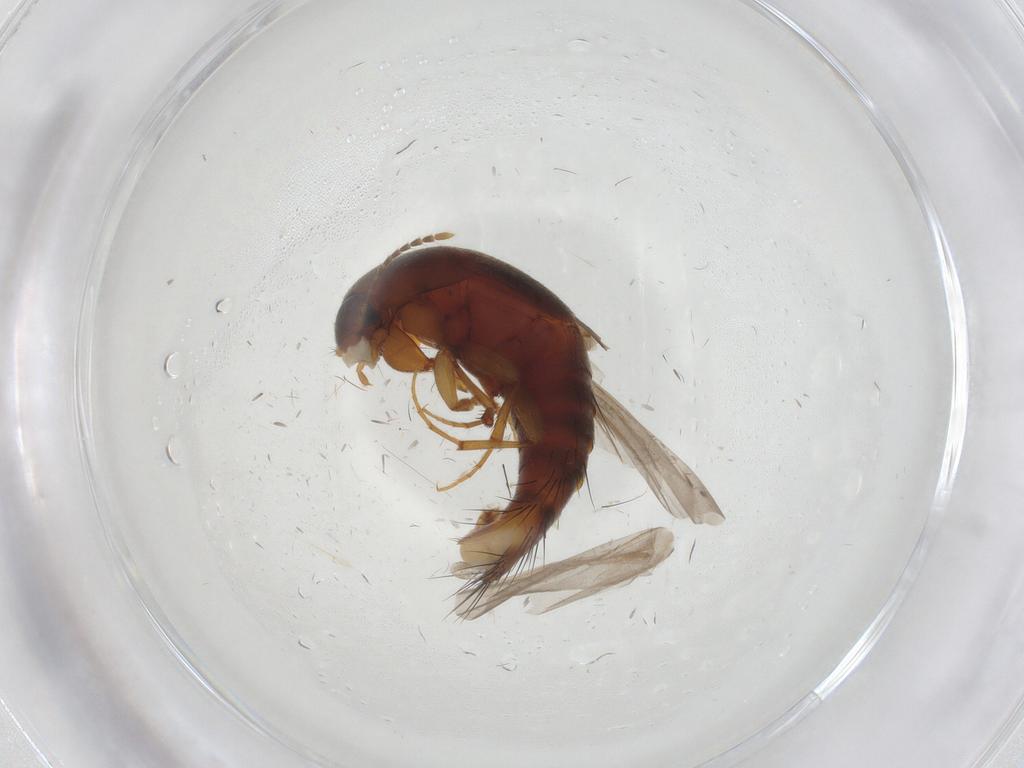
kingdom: Animalia
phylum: Arthropoda
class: Insecta
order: Coleoptera
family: Staphylinidae
